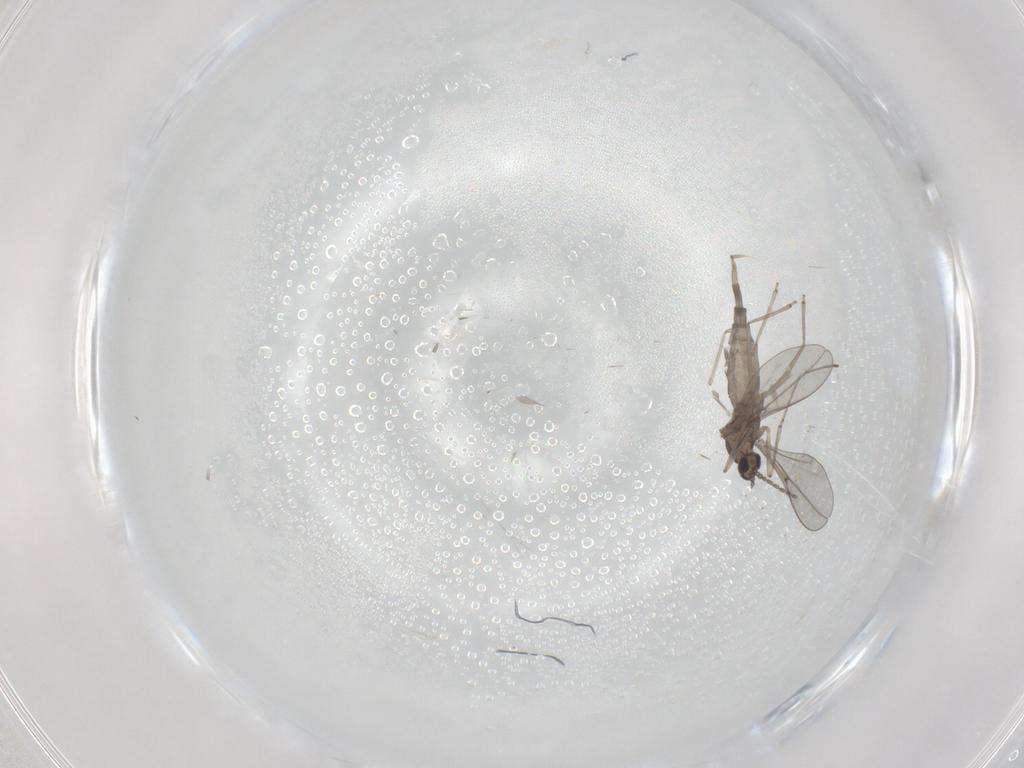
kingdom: Animalia
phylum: Arthropoda
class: Insecta
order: Diptera
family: Cecidomyiidae
